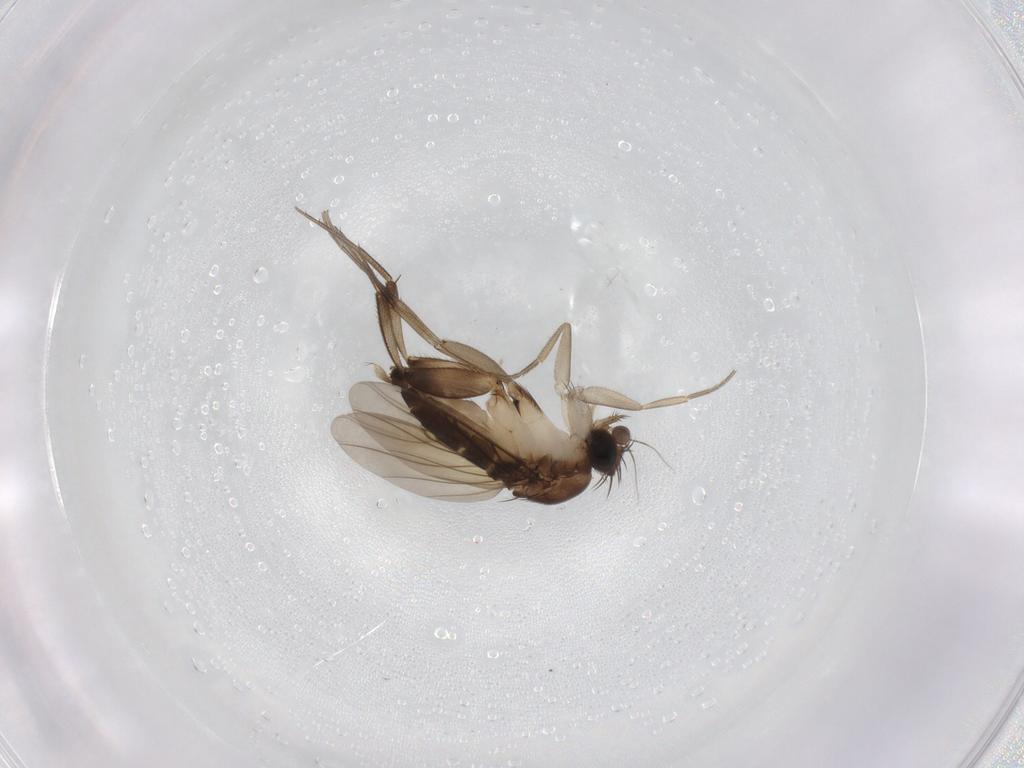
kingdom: Animalia
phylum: Arthropoda
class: Insecta
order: Diptera
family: Phoridae
